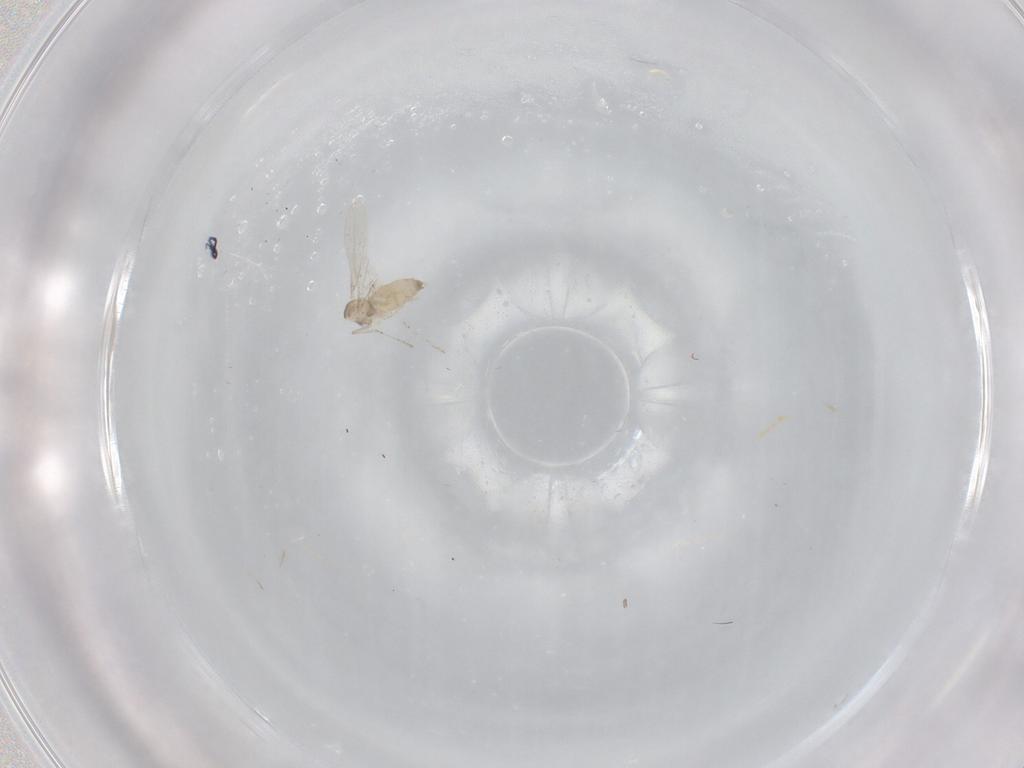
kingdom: Animalia
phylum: Arthropoda
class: Insecta
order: Diptera
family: Cecidomyiidae
